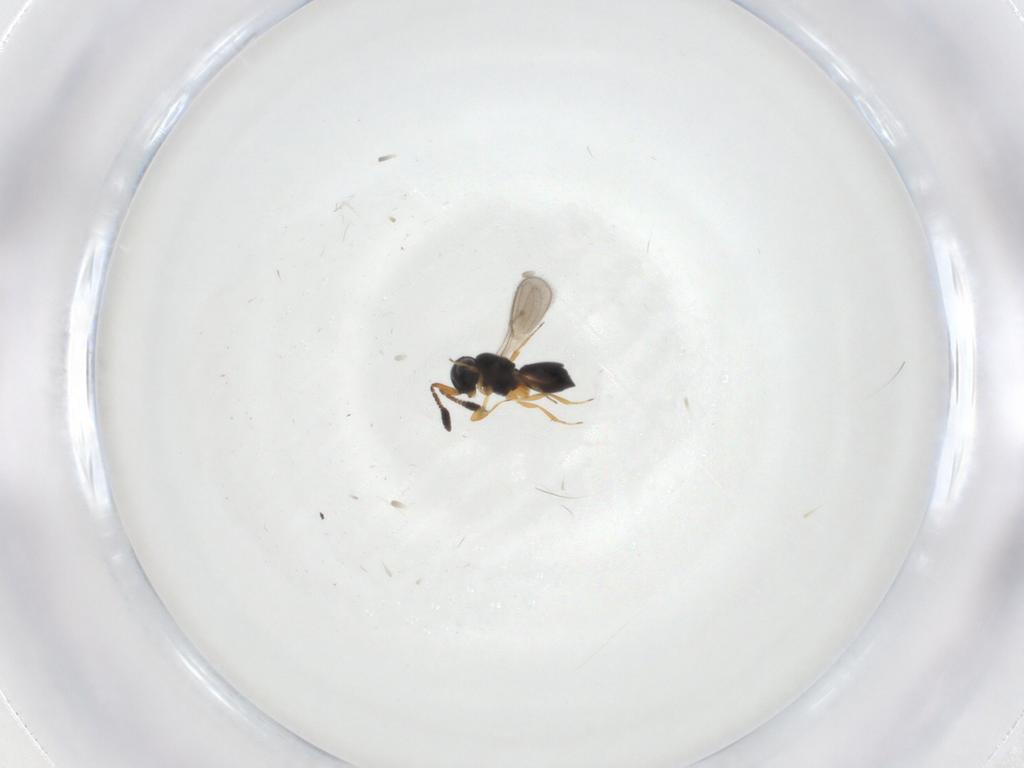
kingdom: Animalia
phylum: Arthropoda
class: Insecta
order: Hymenoptera
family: Scelionidae
